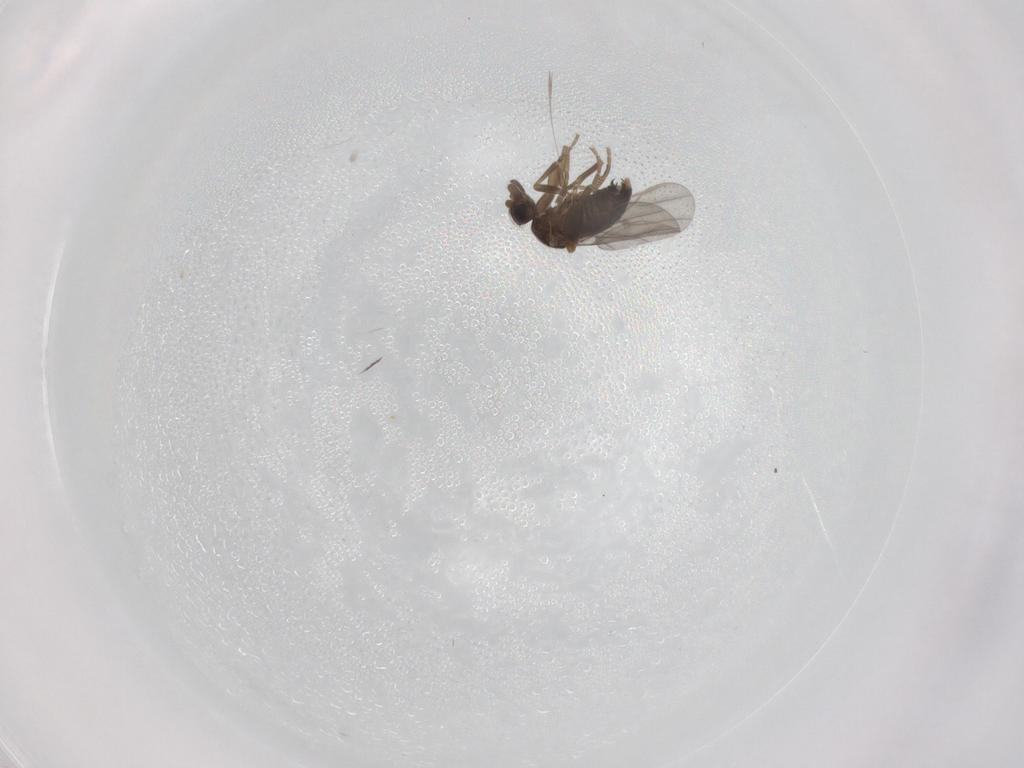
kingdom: Animalia
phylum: Arthropoda
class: Insecta
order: Diptera
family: Phoridae
